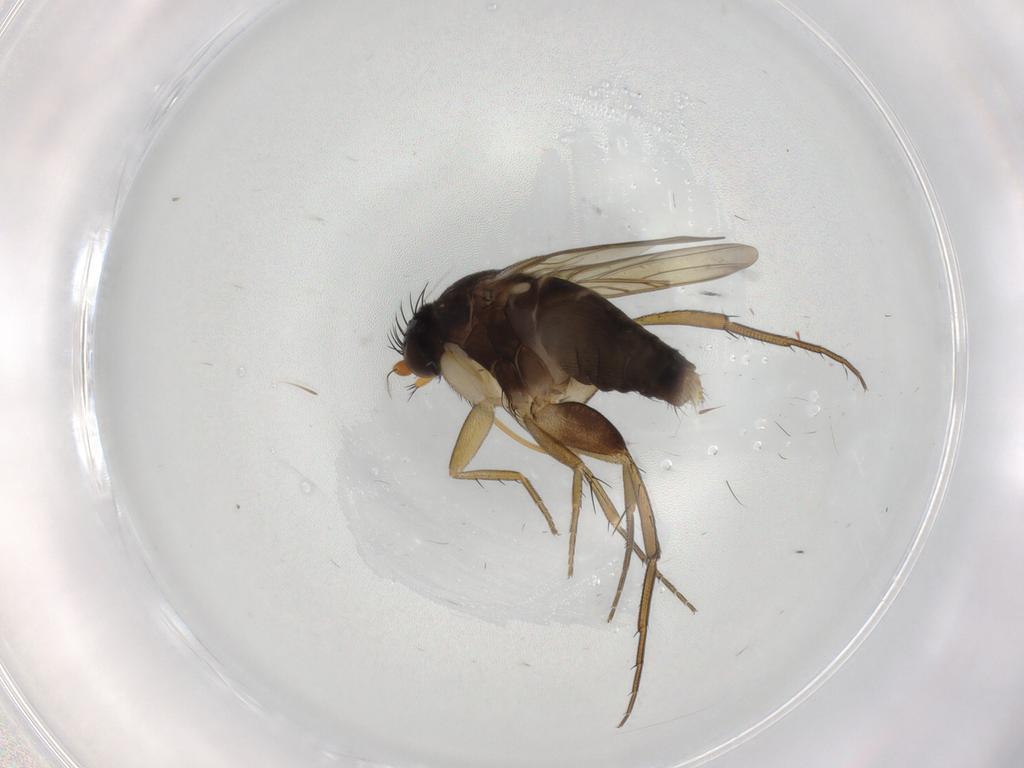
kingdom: Animalia
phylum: Arthropoda
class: Insecta
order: Diptera
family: Phoridae
